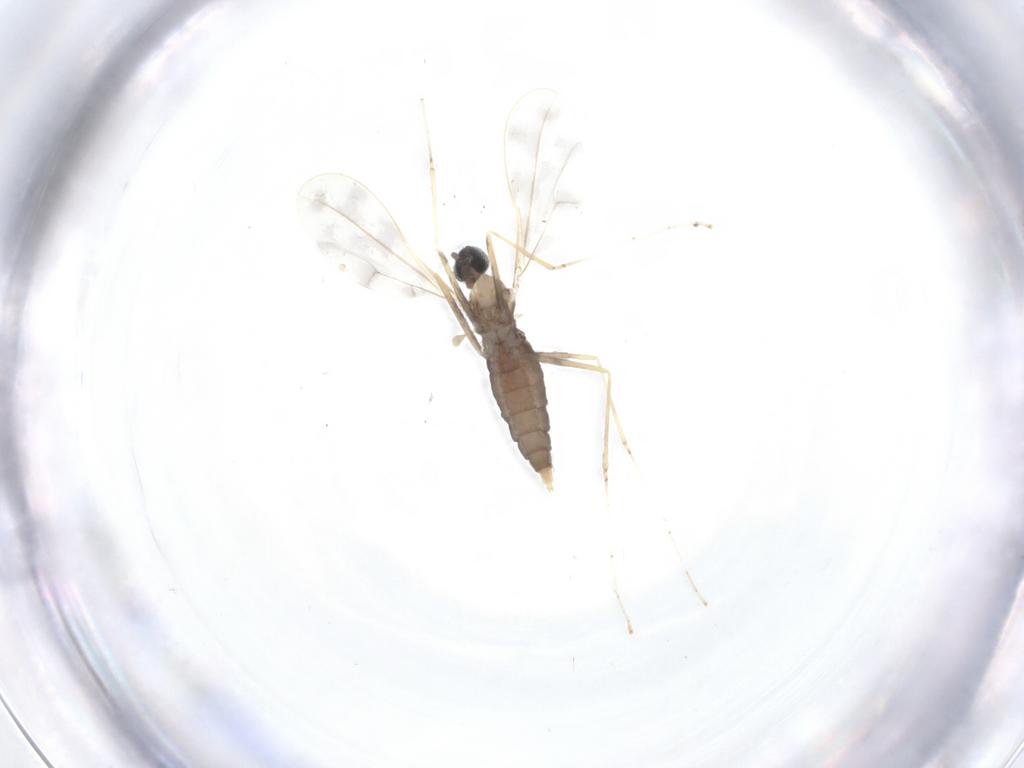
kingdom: Animalia
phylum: Arthropoda
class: Insecta
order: Diptera
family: Cecidomyiidae
